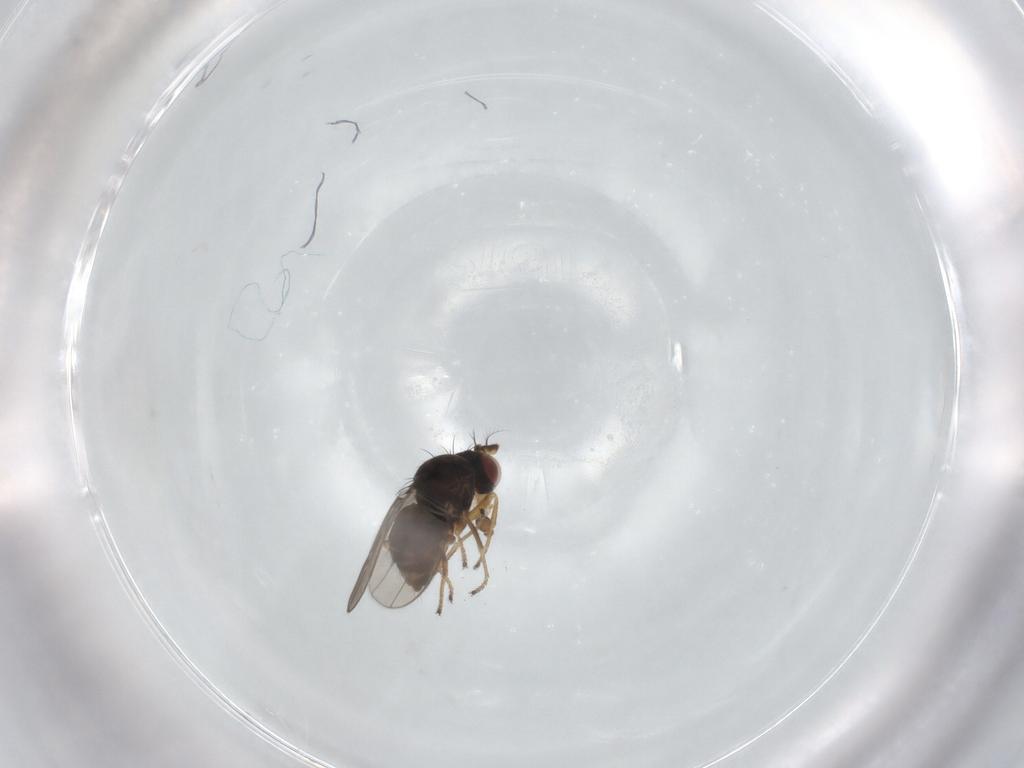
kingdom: Animalia
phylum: Arthropoda
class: Insecta
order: Diptera
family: Ephydridae
